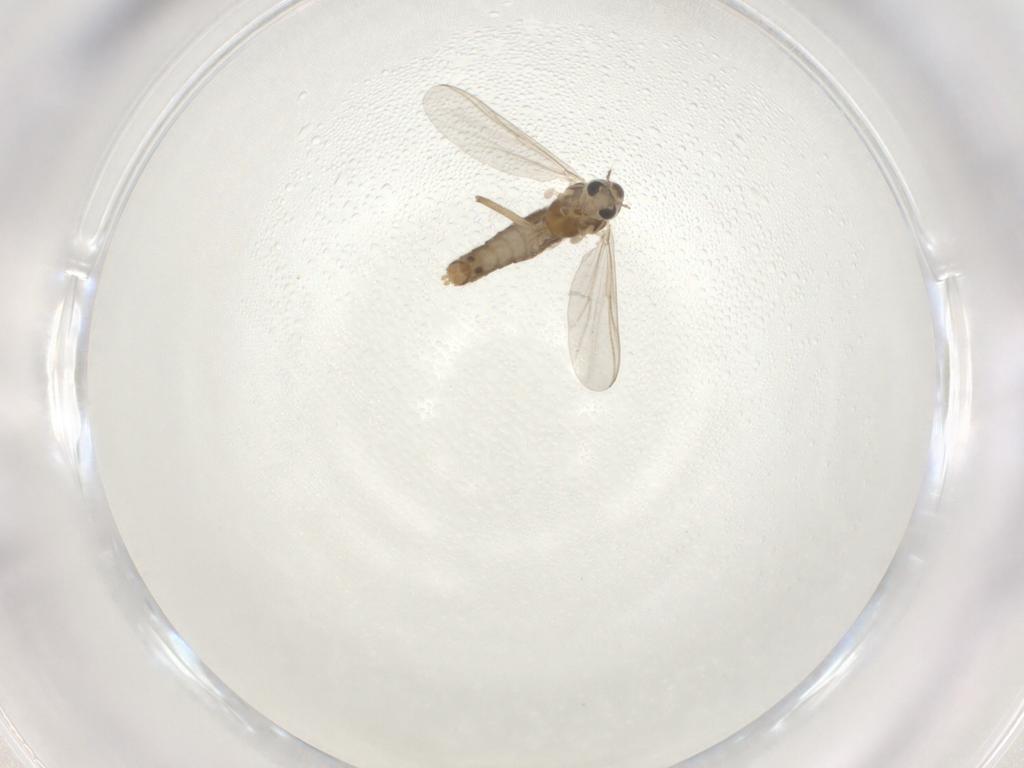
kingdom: Animalia
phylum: Arthropoda
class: Insecta
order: Diptera
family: Chironomidae
